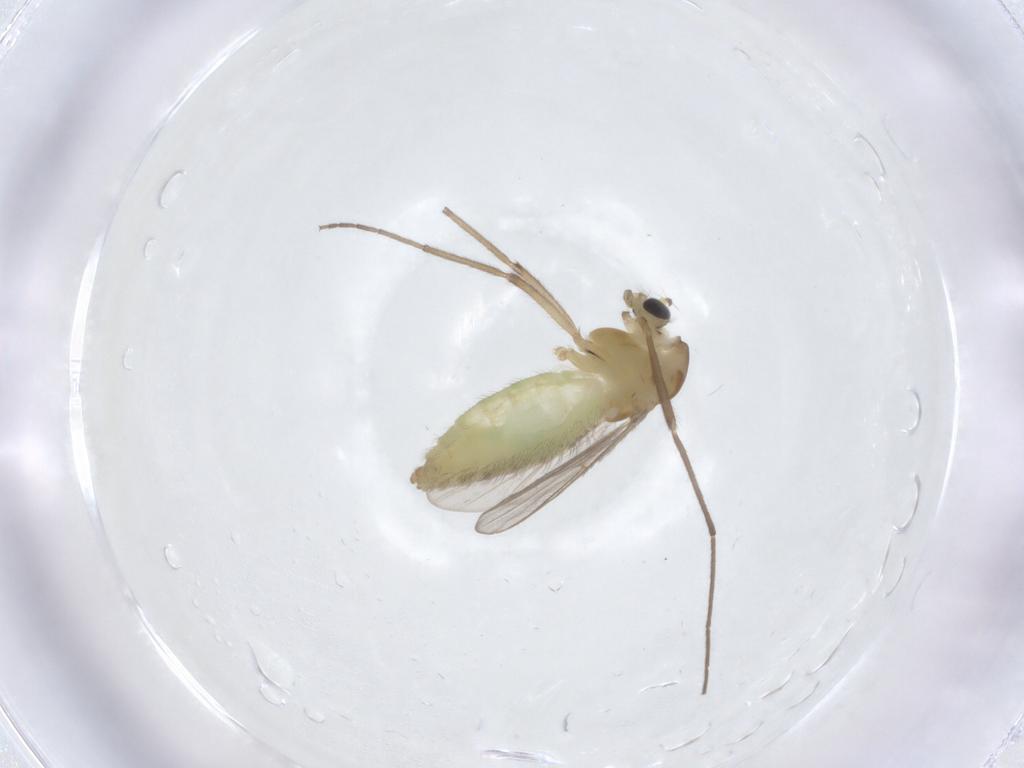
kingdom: Animalia
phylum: Arthropoda
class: Insecta
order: Diptera
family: Chironomidae
